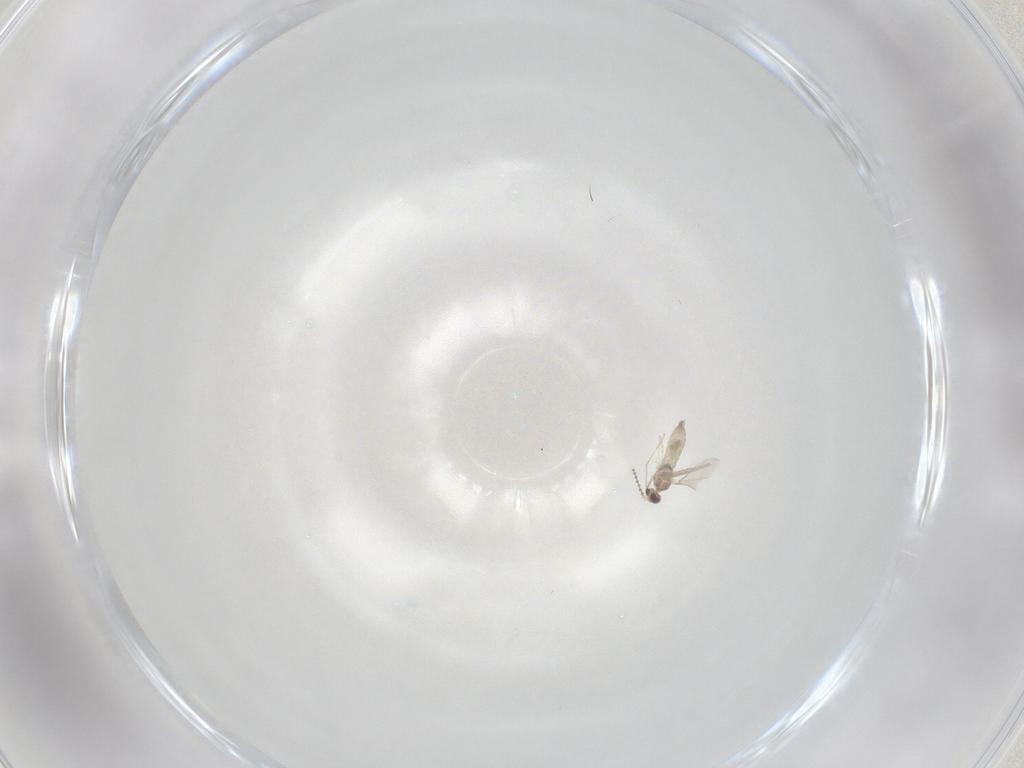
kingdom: Animalia
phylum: Arthropoda
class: Insecta
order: Diptera
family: Cecidomyiidae
